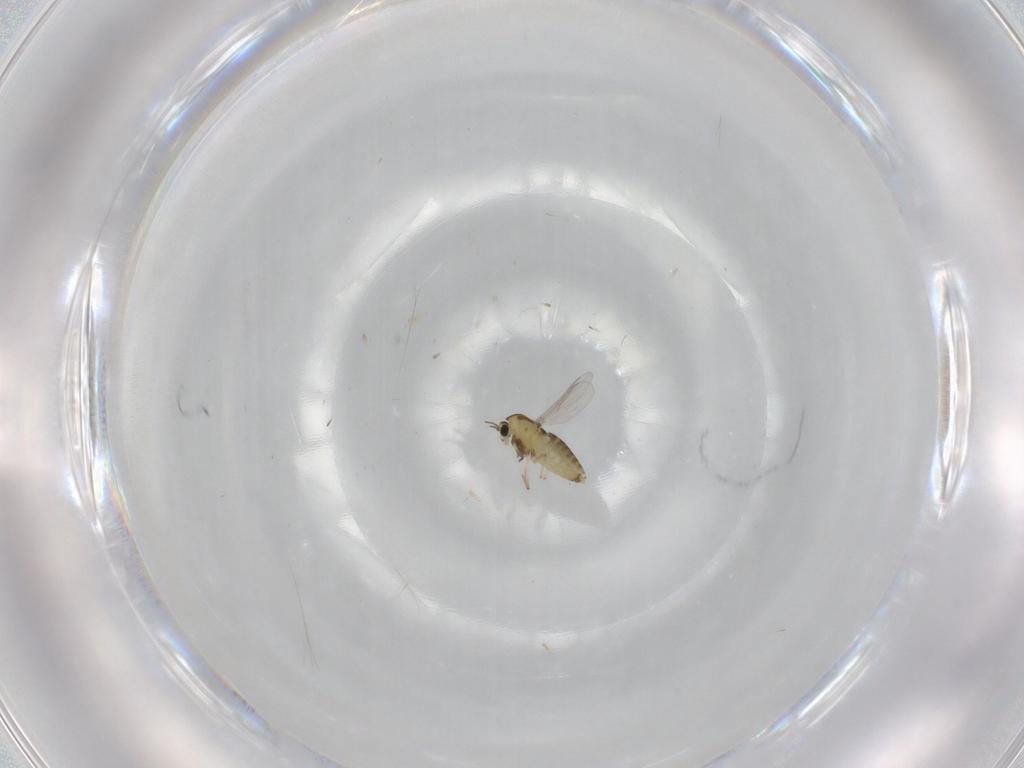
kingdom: Animalia
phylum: Arthropoda
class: Insecta
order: Diptera
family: Chironomidae
